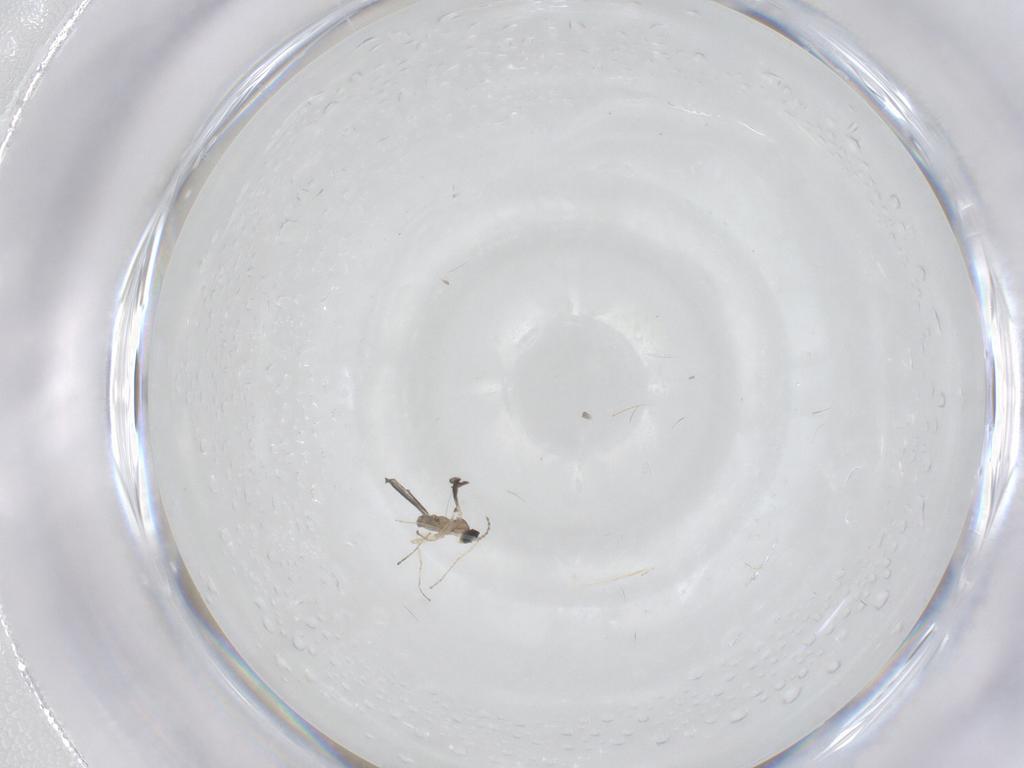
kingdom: Animalia
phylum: Arthropoda
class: Insecta
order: Diptera
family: Cecidomyiidae
